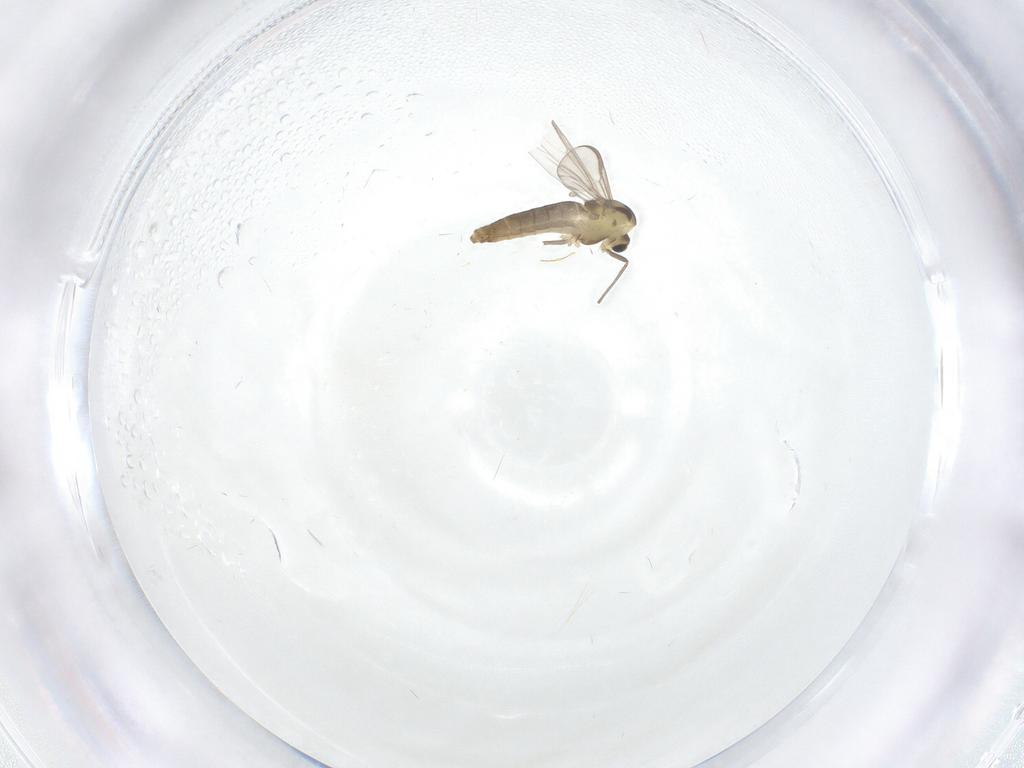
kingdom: Animalia
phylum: Arthropoda
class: Insecta
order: Diptera
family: Chironomidae
